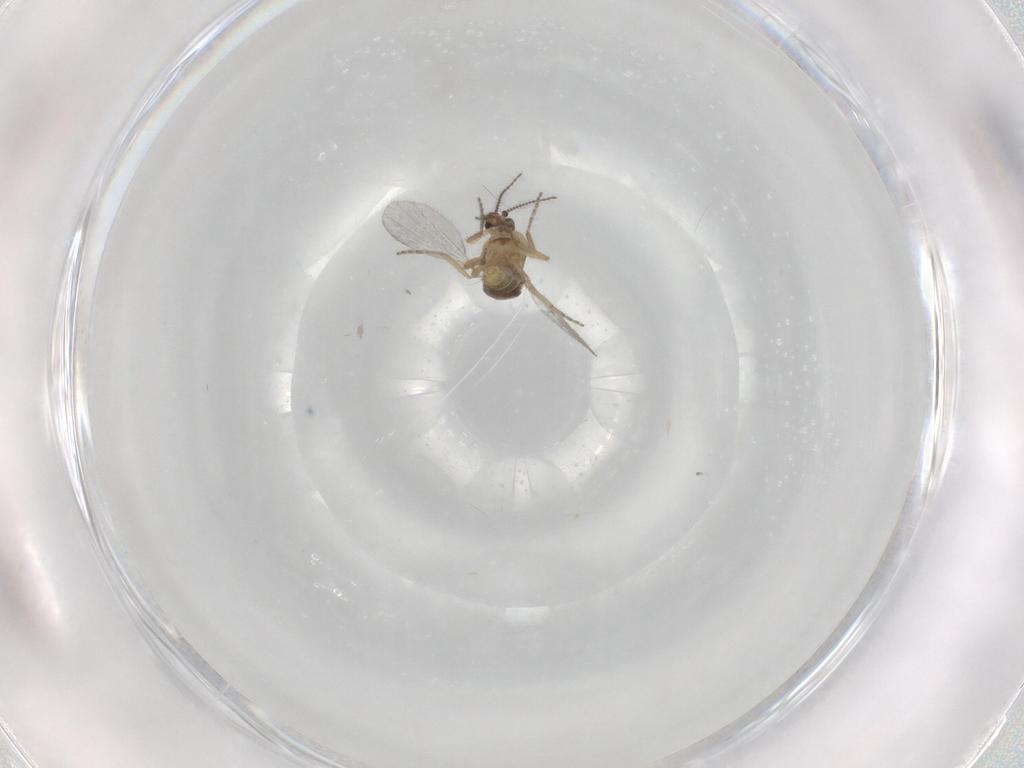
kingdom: Animalia
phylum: Arthropoda
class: Insecta
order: Diptera
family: Ceratopogonidae
